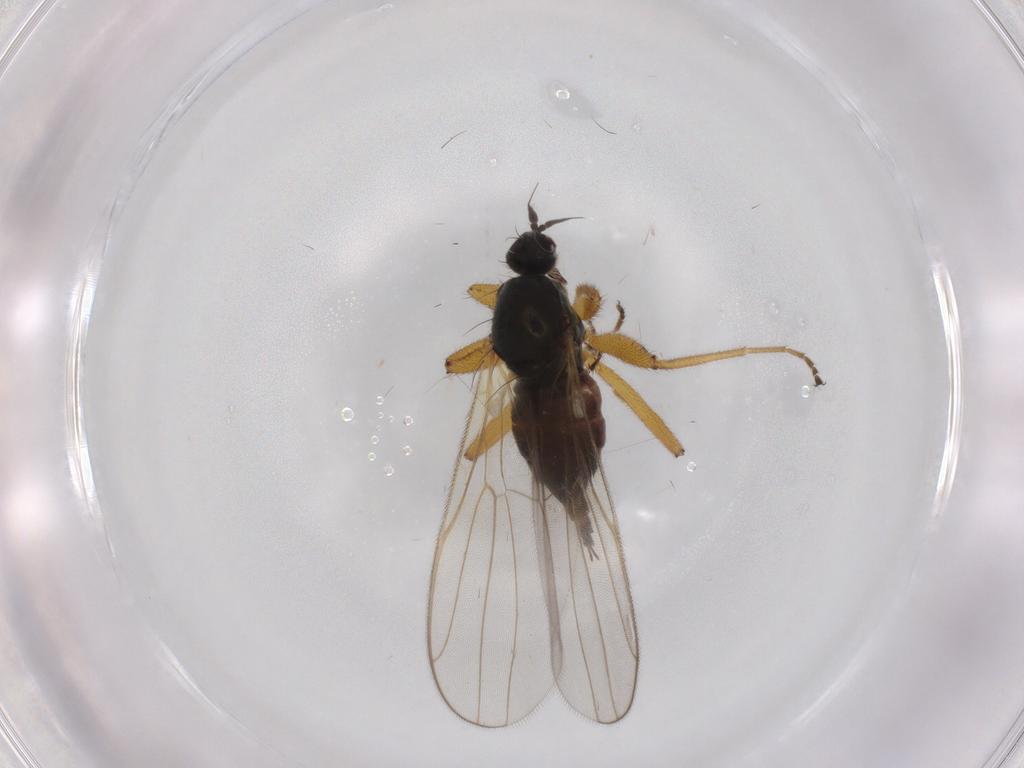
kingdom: Animalia
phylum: Arthropoda
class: Insecta
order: Diptera
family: Hybotidae
